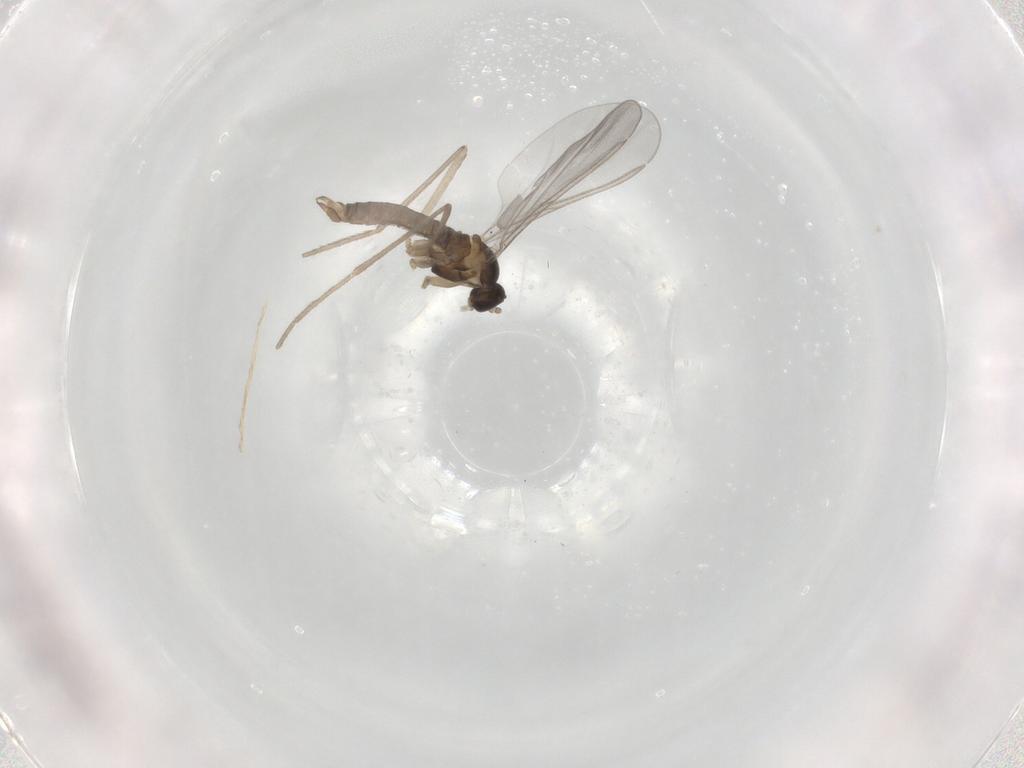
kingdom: Animalia
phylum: Arthropoda
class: Insecta
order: Diptera
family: Cecidomyiidae
